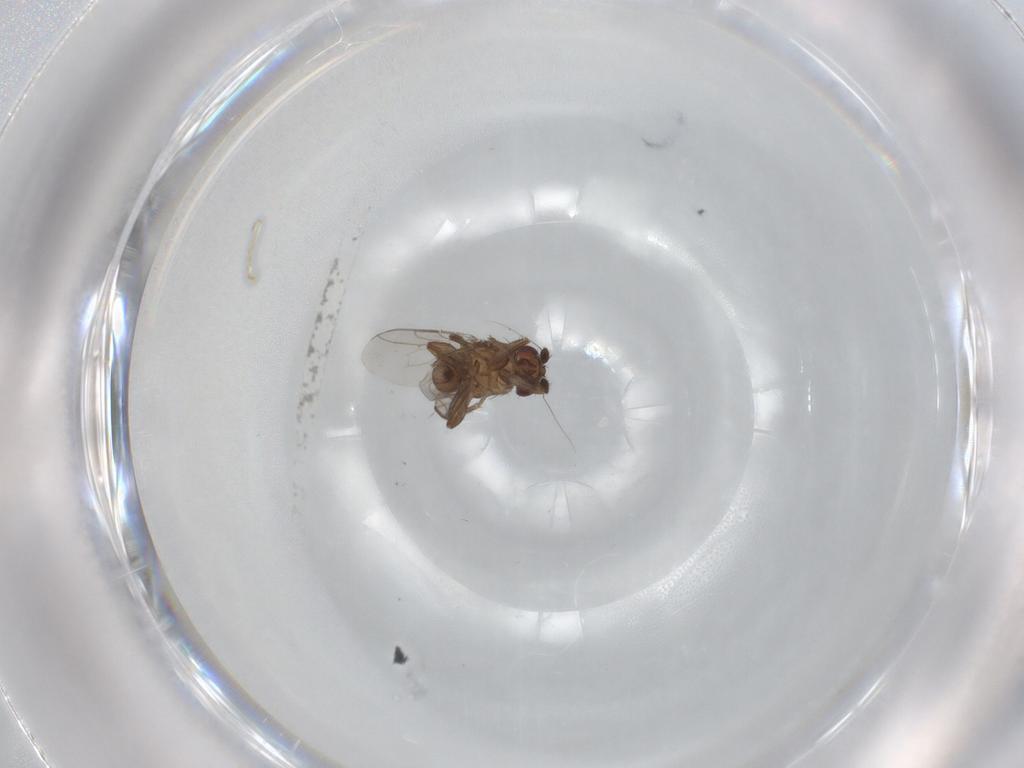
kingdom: Animalia
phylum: Arthropoda
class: Insecta
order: Diptera
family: Sphaeroceridae
